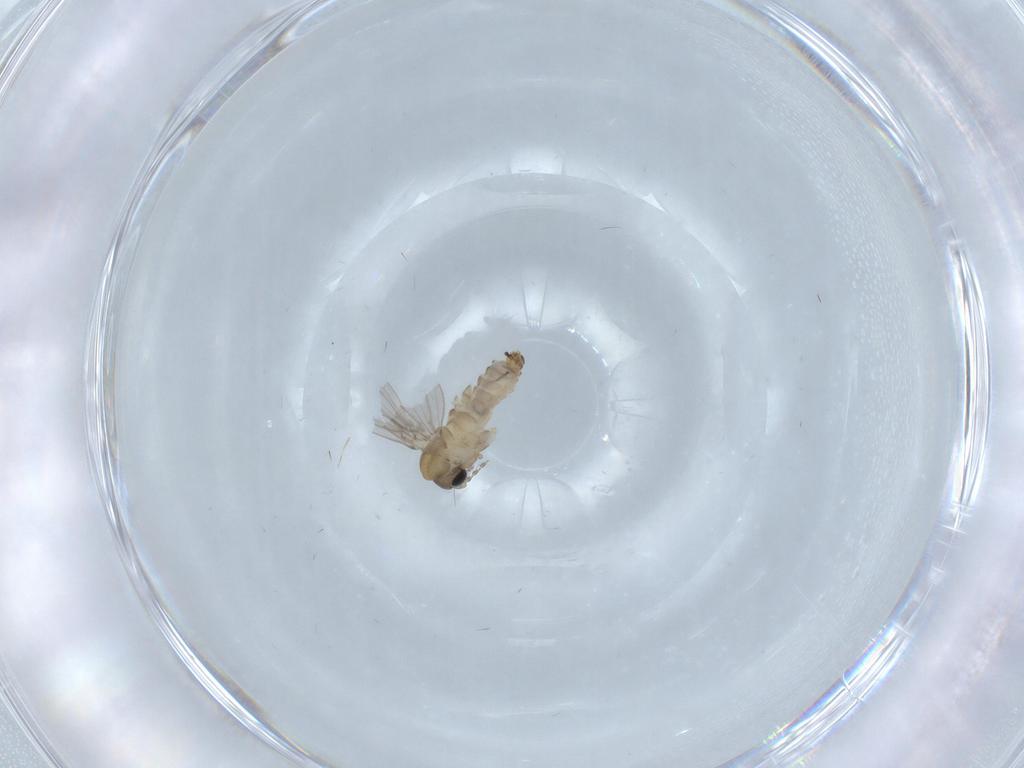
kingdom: Animalia
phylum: Arthropoda
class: Insecta
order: Diptera
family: Psychodidae
